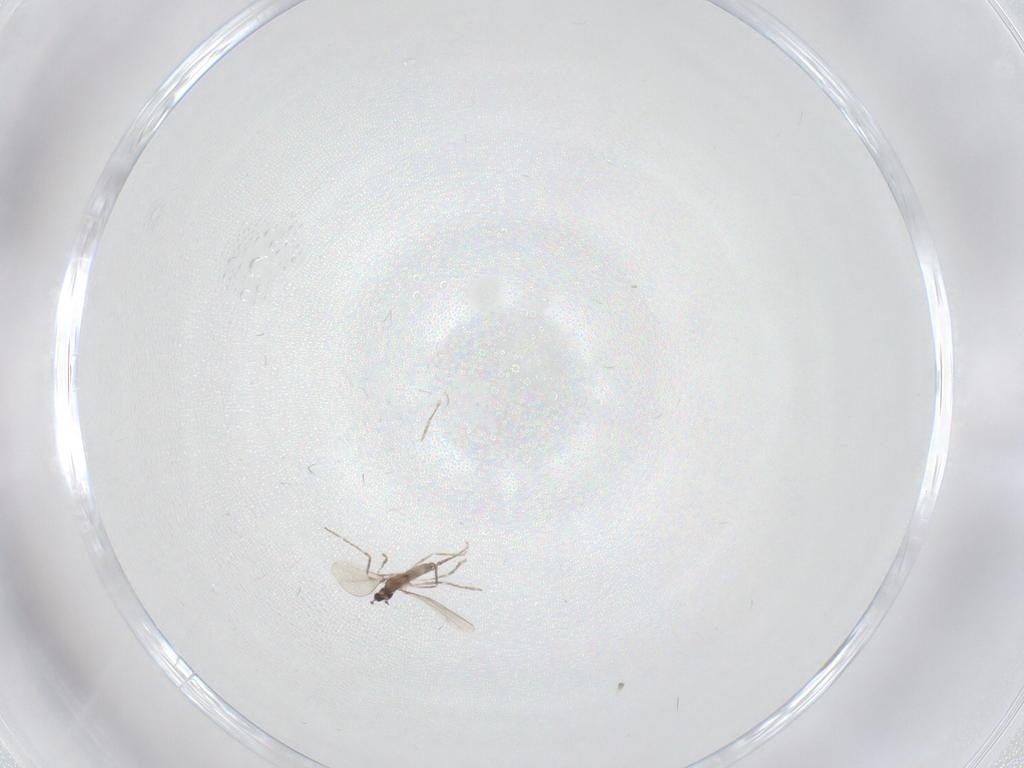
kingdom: Animalia
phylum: Arthropoda
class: Insecta
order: Diptera
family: Cecidomyiidae
